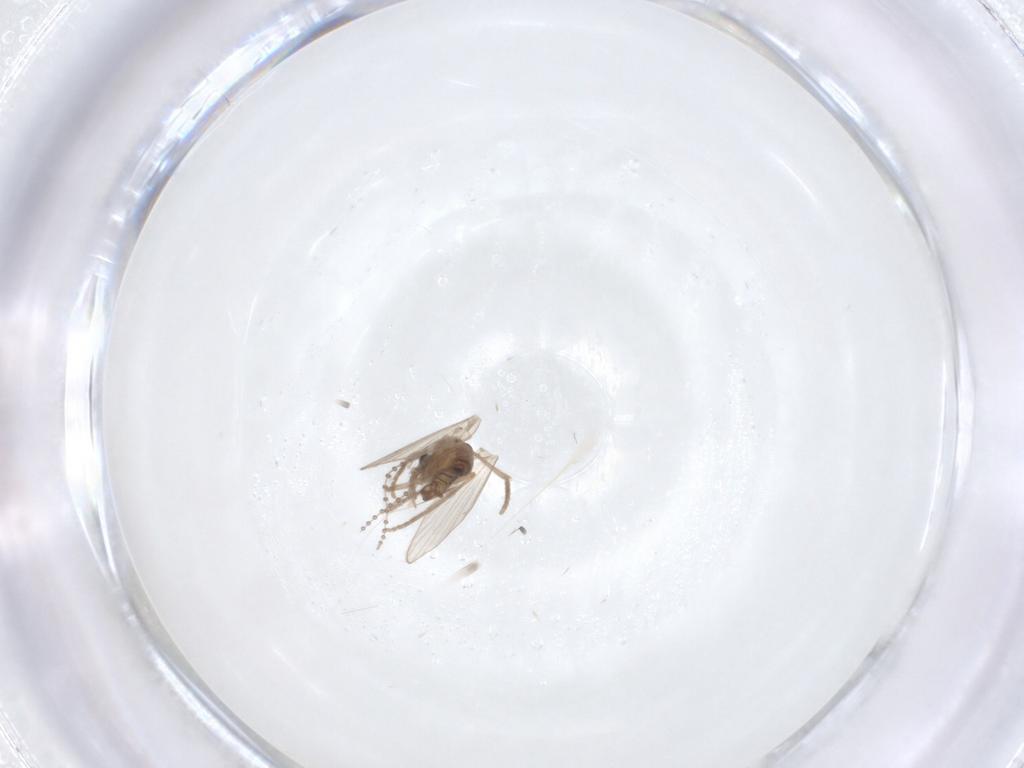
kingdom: Animalia
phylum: Arthropoda
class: Insecta
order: Diptera
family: Psychodidae
